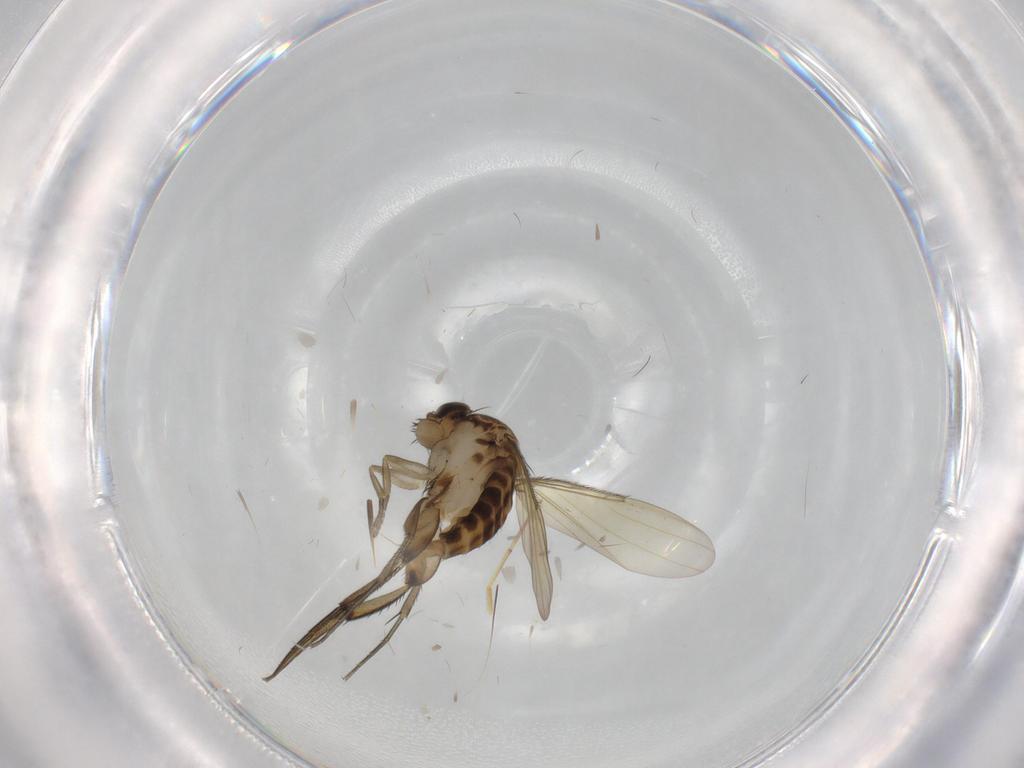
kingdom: Animalia
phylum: Arthropoda
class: Insecta
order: Diptera
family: Phoridae
